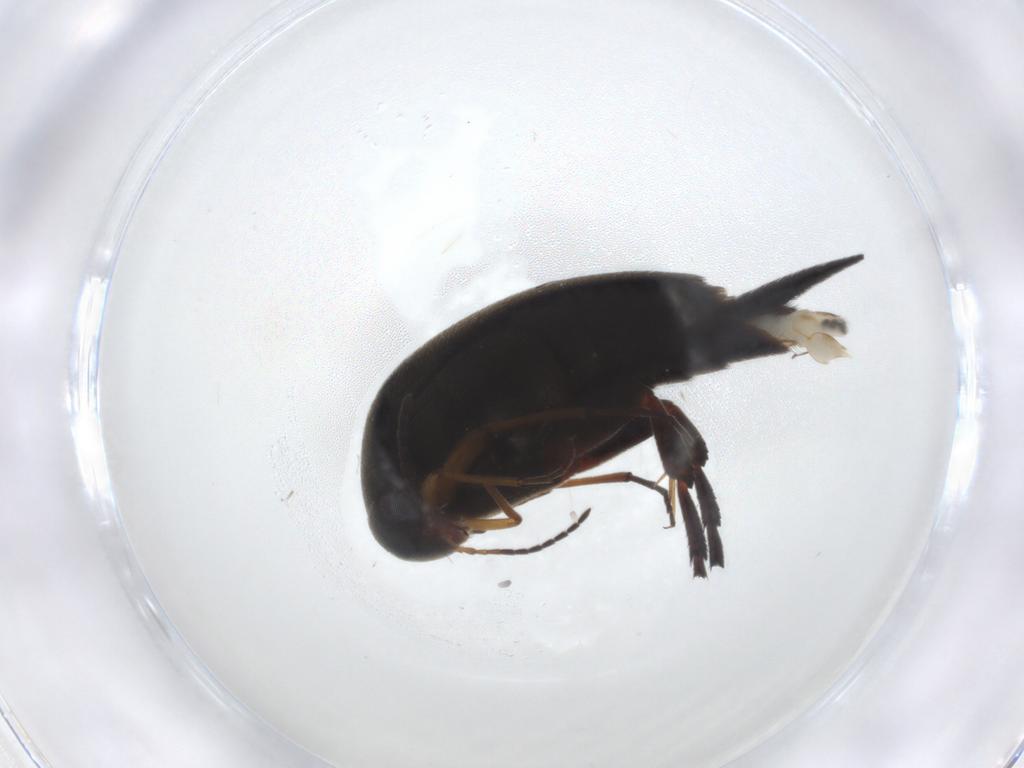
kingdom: Animalia
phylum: Arthropoda
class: Insecta
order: Coleoptera
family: Mordellidae
